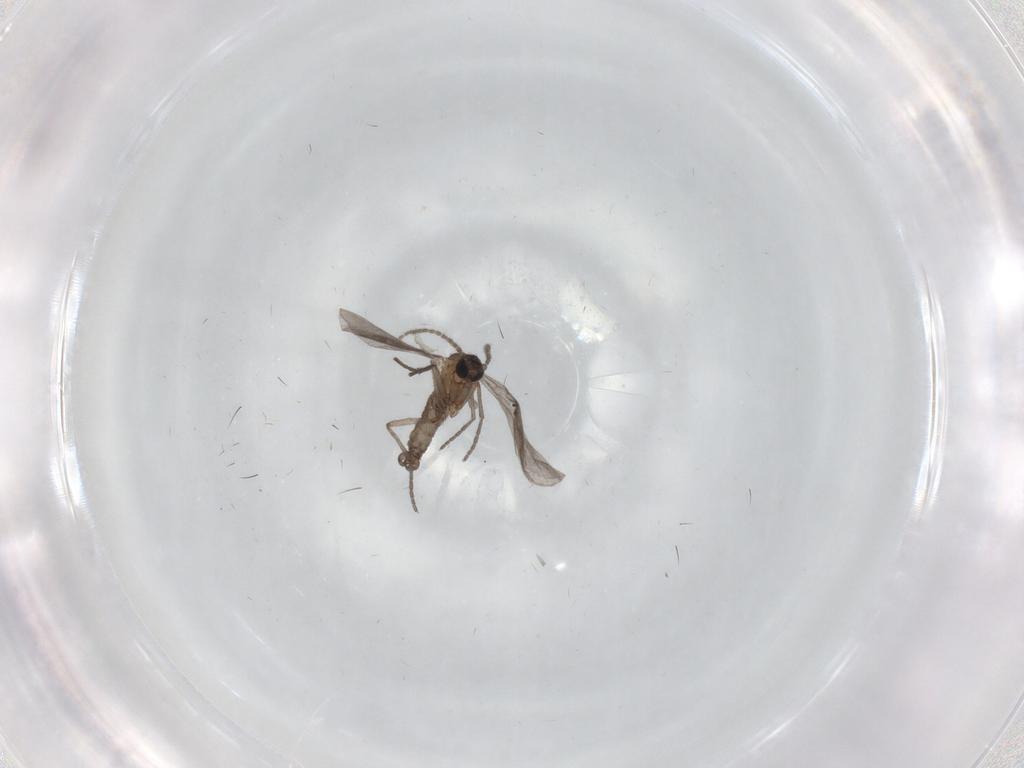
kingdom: Animalia
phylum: Arthropoda
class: Insecta
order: Diptera
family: Sciaridae
